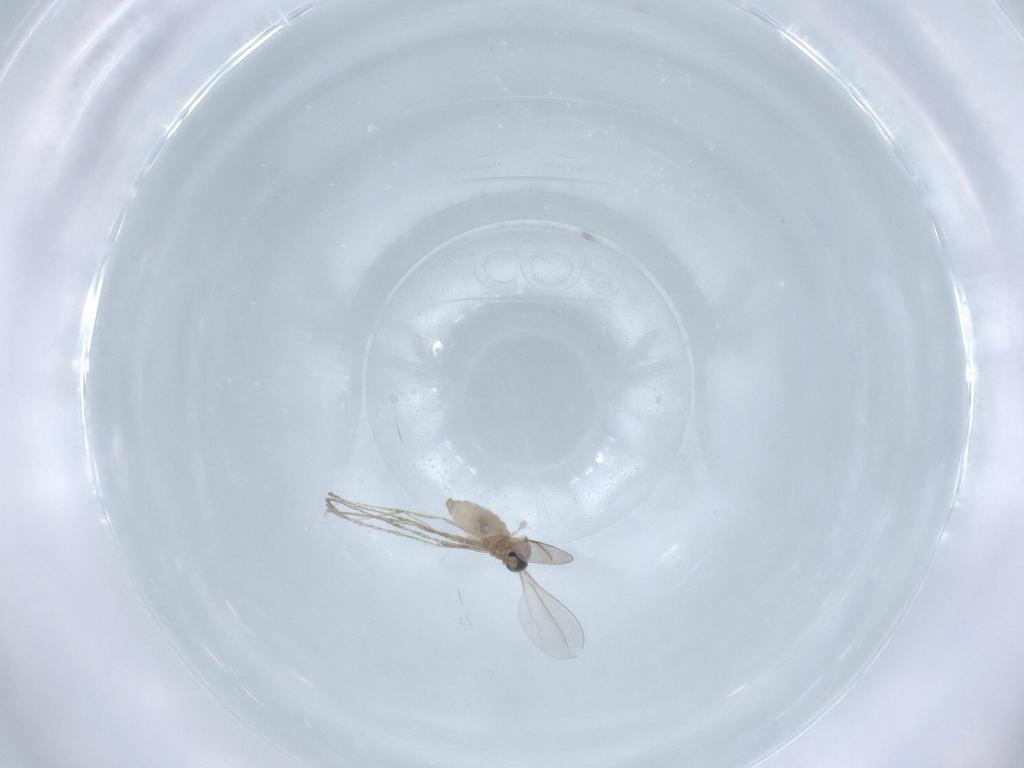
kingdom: Animalia
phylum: Arthropoda
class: Insecta
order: Diptera
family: Cecidomyiidae
